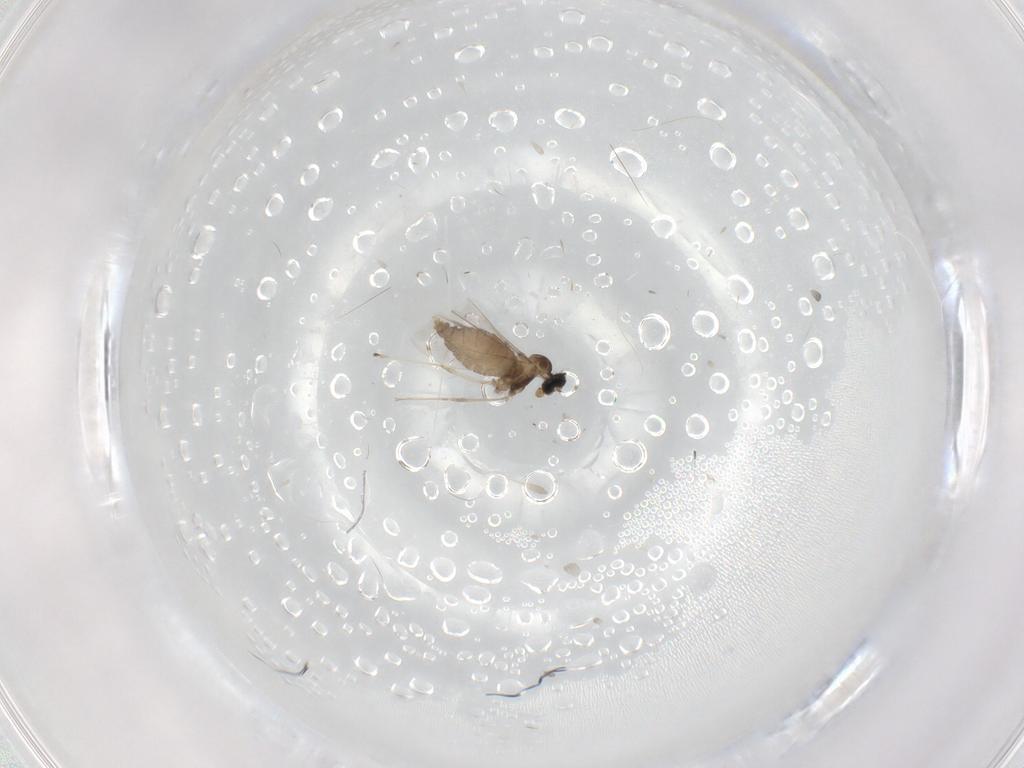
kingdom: Animalia
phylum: Arthropoda
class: Insecta
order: Diptera
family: Cecidomyiidae
